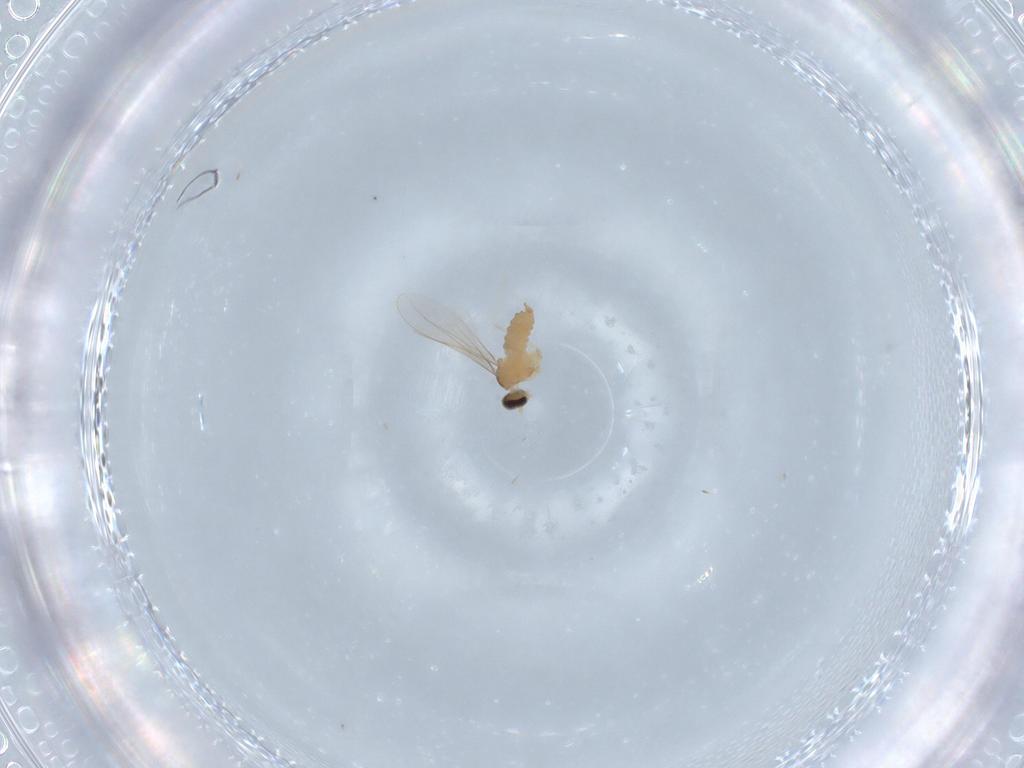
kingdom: Animalia
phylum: Arthropoda
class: Insecta
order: Diptera
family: Cecidomyiidae
